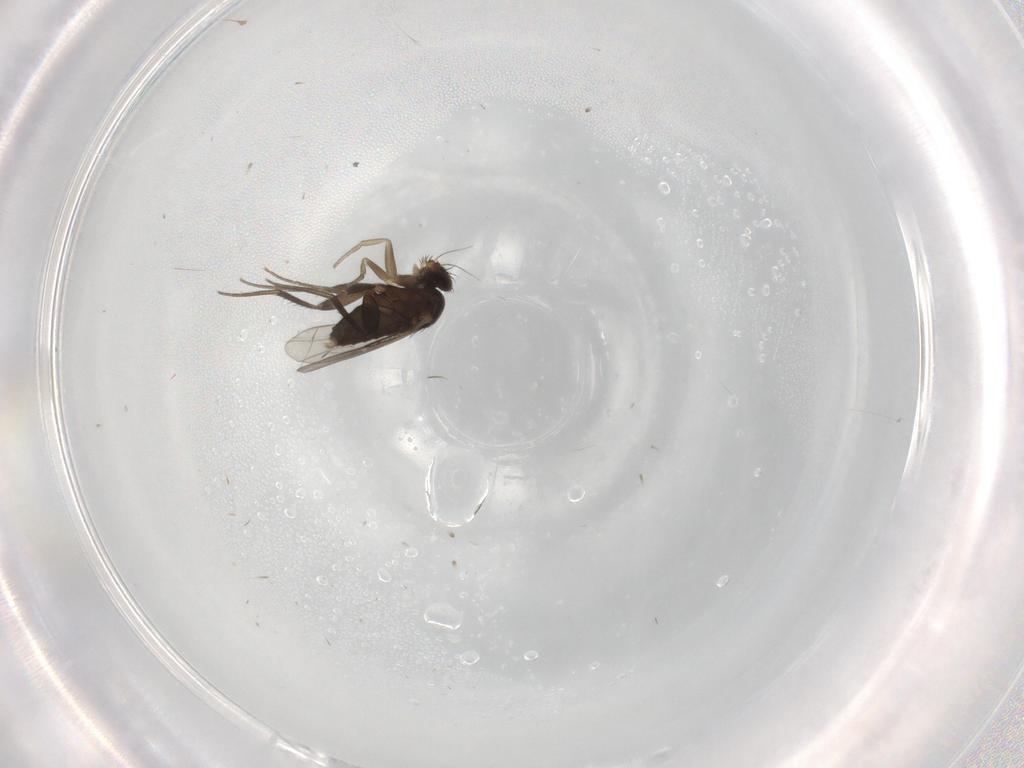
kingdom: Animalia
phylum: Arthropoda
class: Insecta
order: Diptera
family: Phoridae
